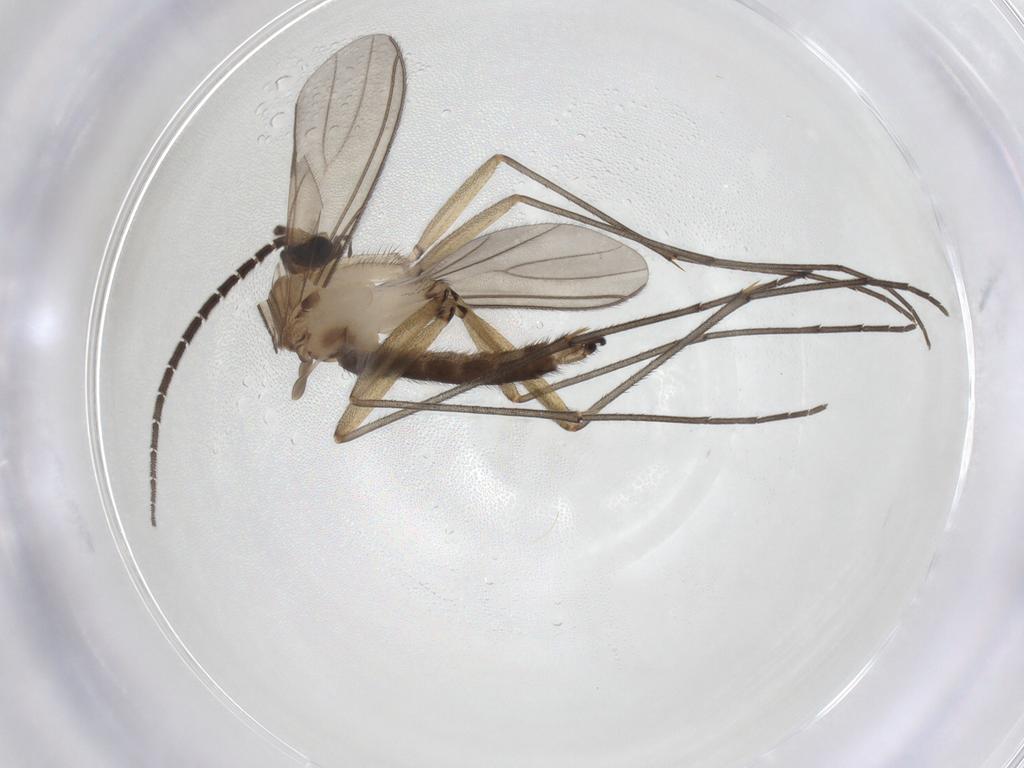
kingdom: Animalia
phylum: Arthropoda
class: Insecta
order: Diptera
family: Sciaridae
